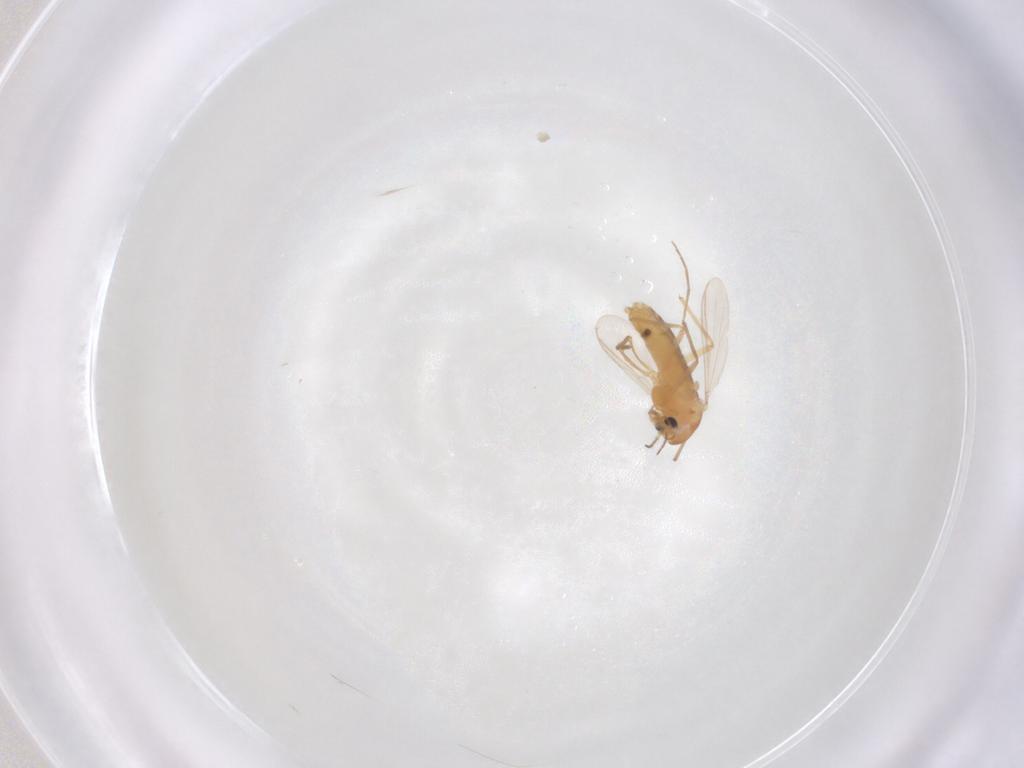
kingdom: Animalia
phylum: Arthropoda
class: Insecta
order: Diptera
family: Chironomidae
